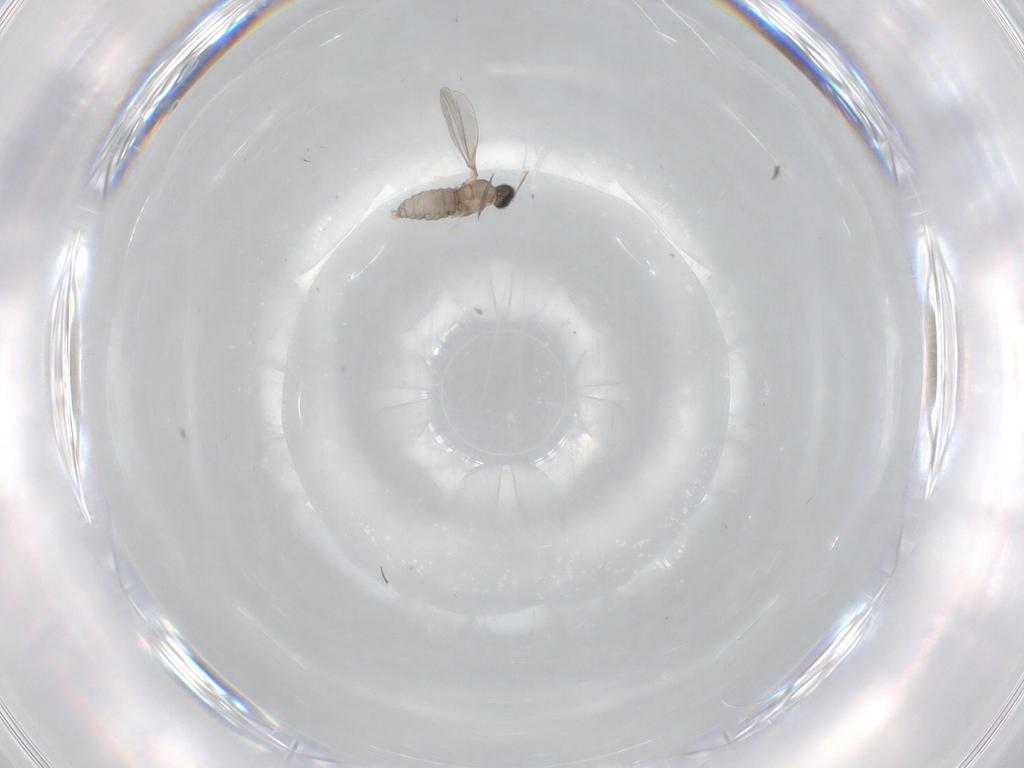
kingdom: Animalia
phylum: Arthropoda
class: Insecta
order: Diptera
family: Cecidomyiidae
